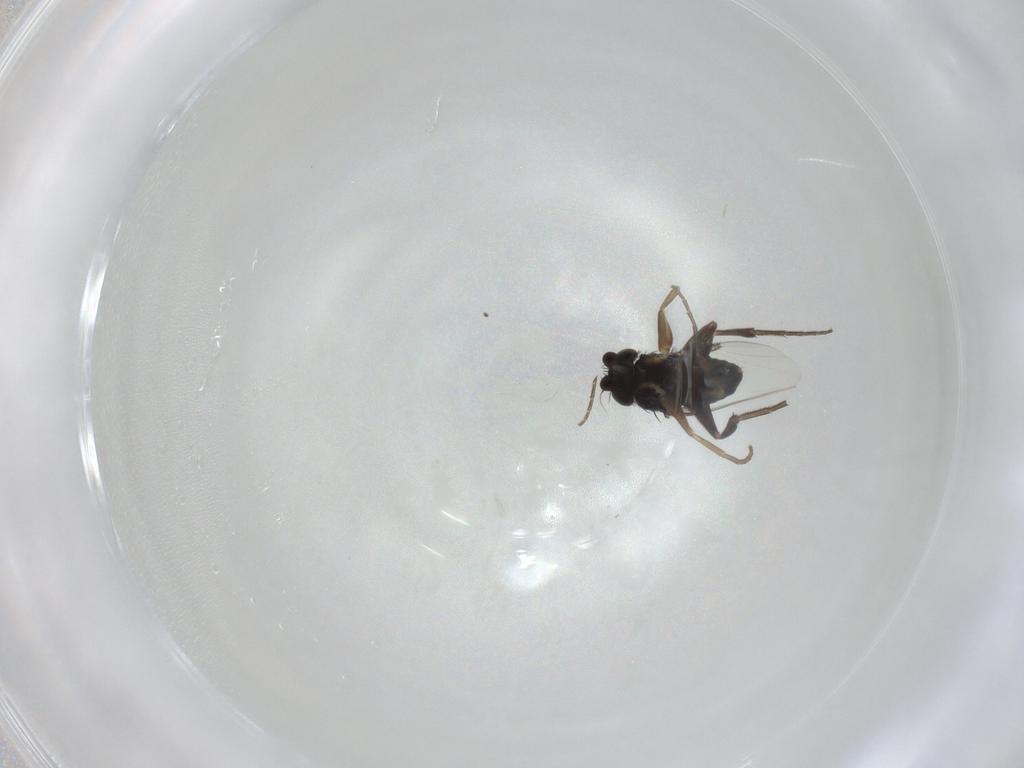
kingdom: Animalia
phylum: Arthropoda
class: Insecta
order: Diptera
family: Phoridae
